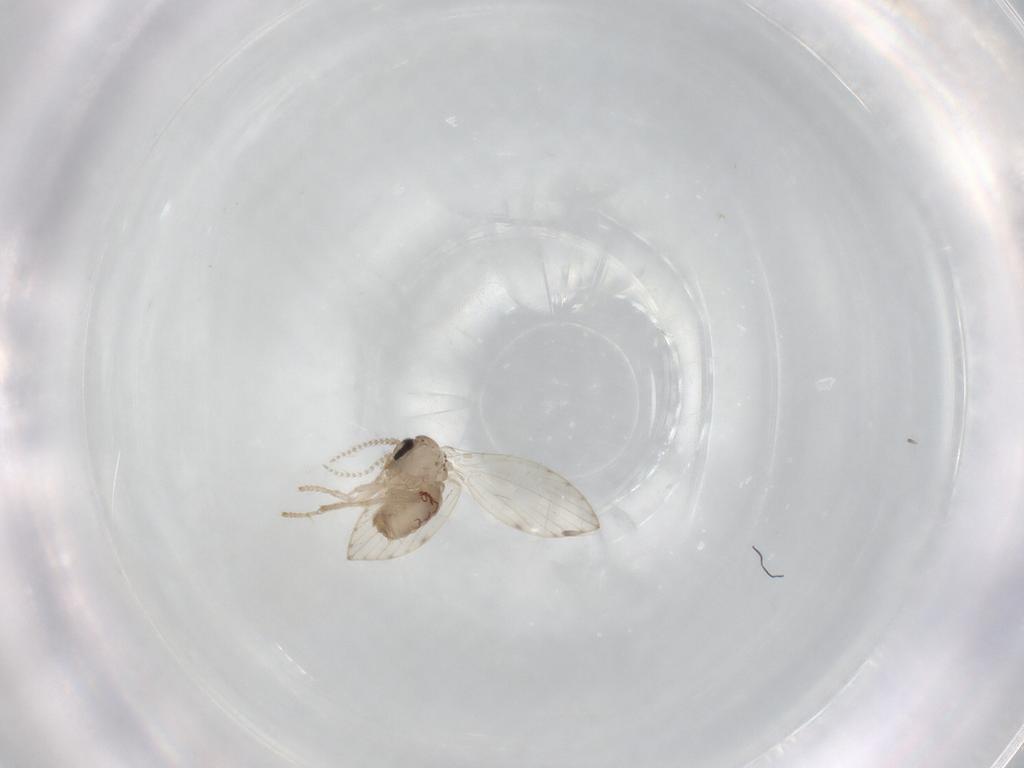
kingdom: Animalia
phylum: Arthropoda
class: Insecta
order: Diptera
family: Psychodidae
